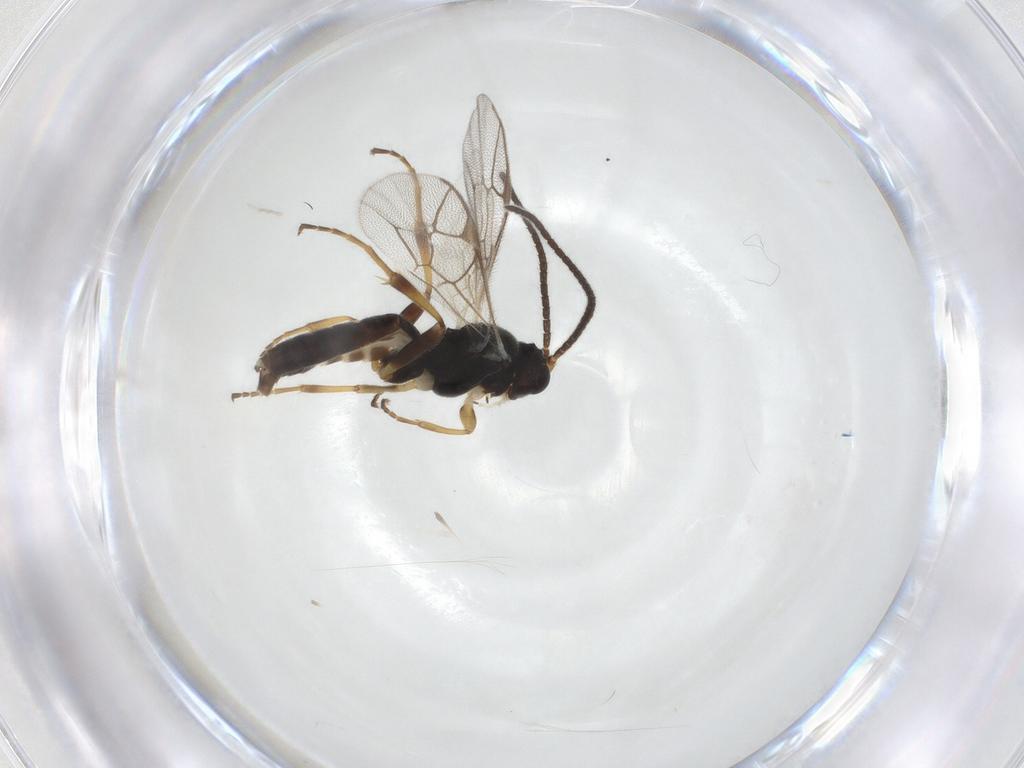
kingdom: Animalia
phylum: Arthropoda
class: Insecta
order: Hymenoptera
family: Ichneumonidae
